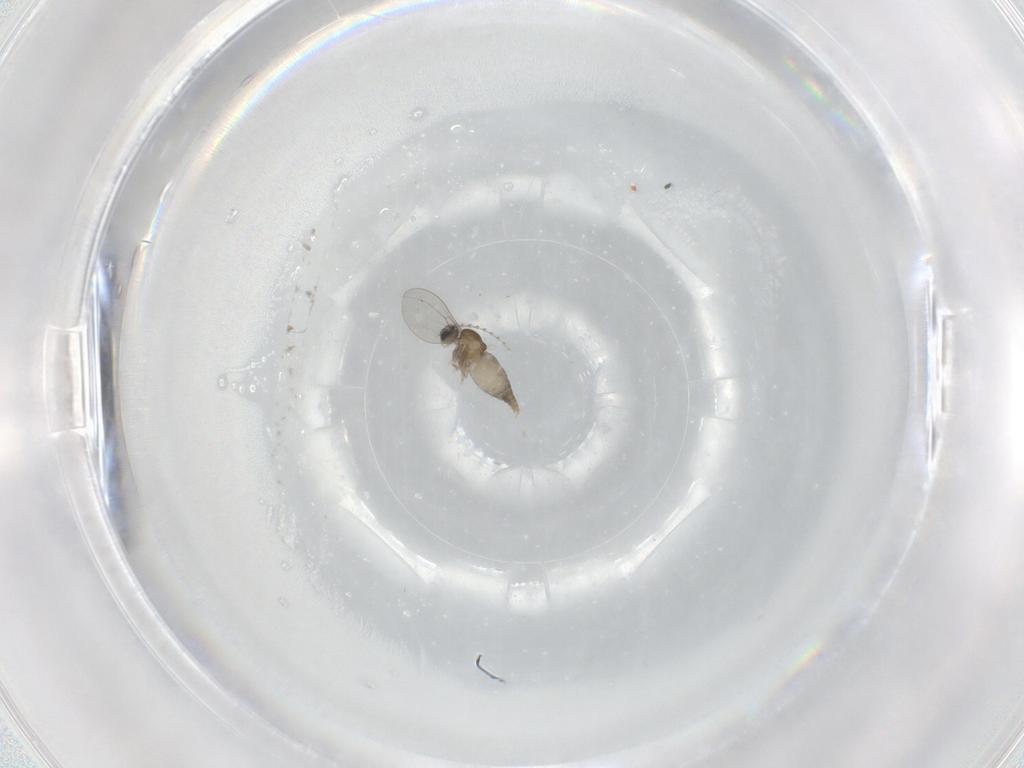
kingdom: Animalia
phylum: Arthropoda
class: Insecta
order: Diptera
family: Cecidomyiidae
